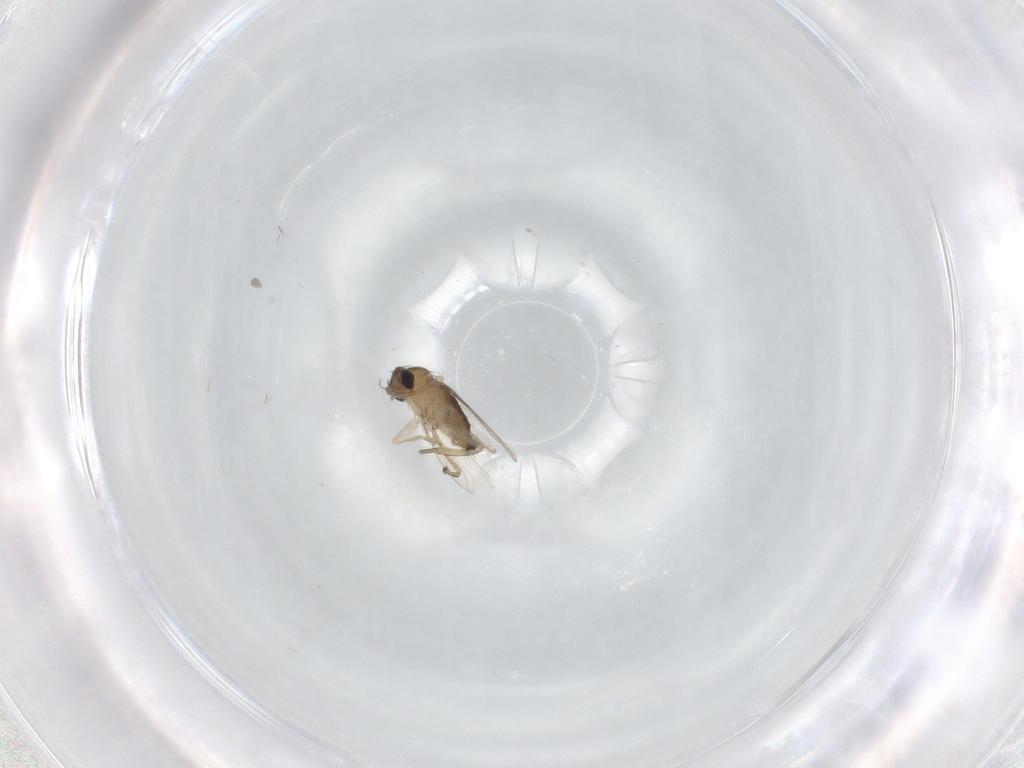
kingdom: Animalia
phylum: Arthropoda
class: Insecta
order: Diptera
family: Phoridae
